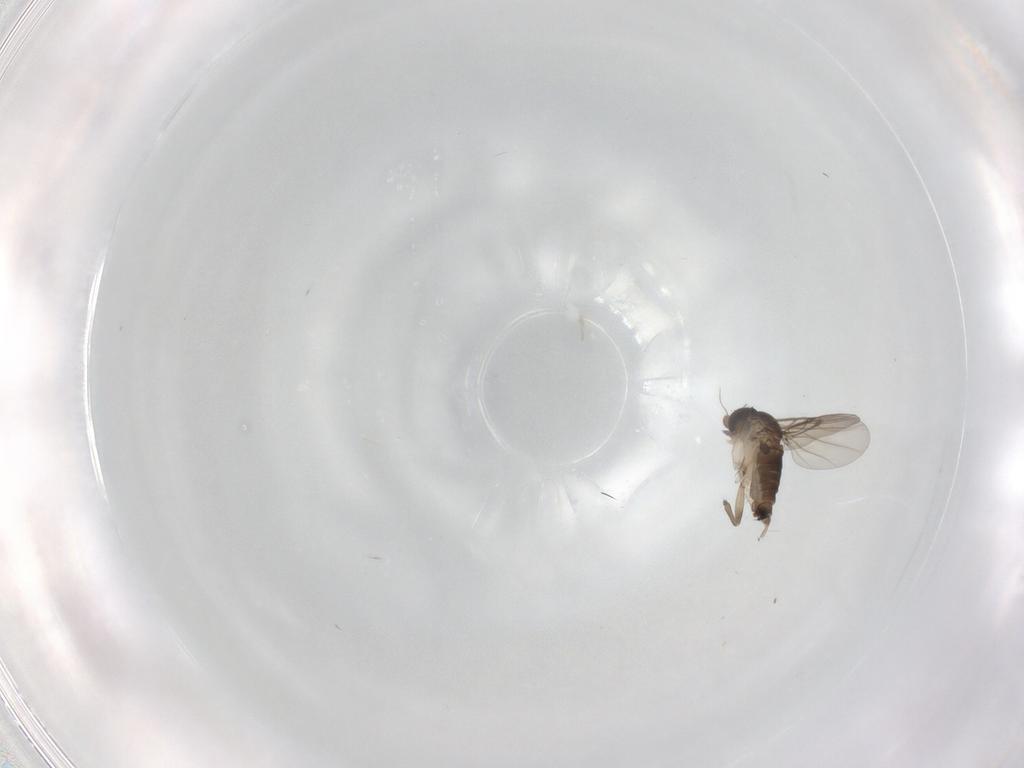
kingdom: Animalia
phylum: Arthropoda
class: Insecta
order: Diptera
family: Phoridae
